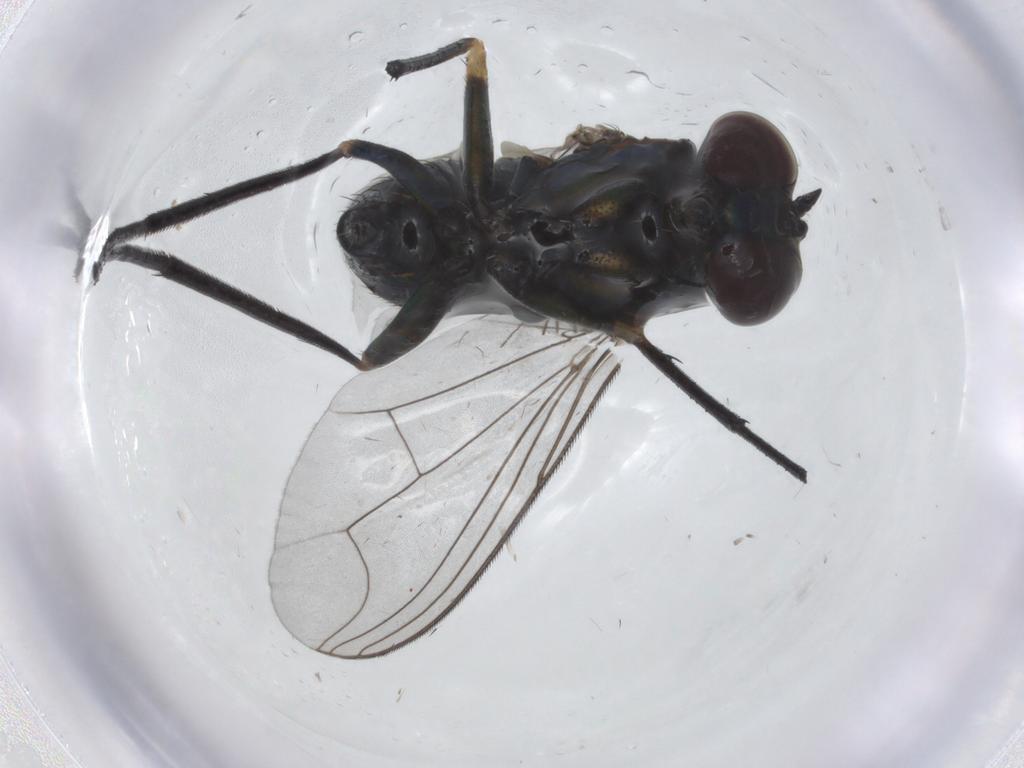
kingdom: Animalia
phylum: Arthropoda
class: Insecta
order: Diptera
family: Dolichopodidae
